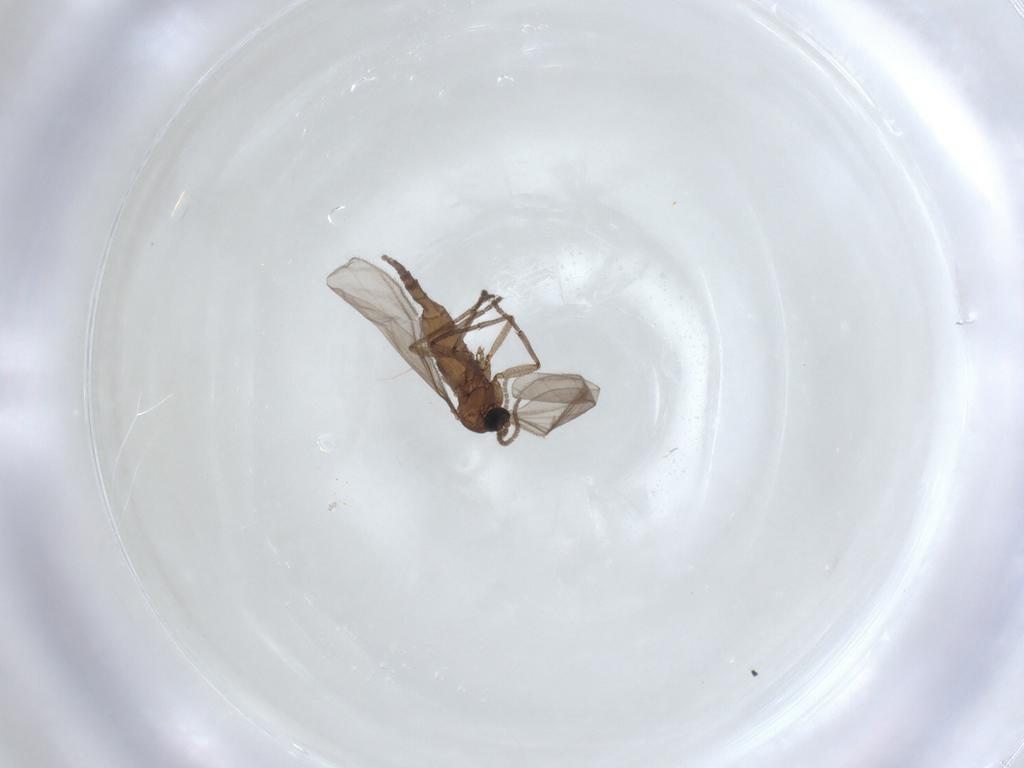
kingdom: Animalia
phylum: Arthropoda
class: Insecta
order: Diptera
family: Sciaridae
